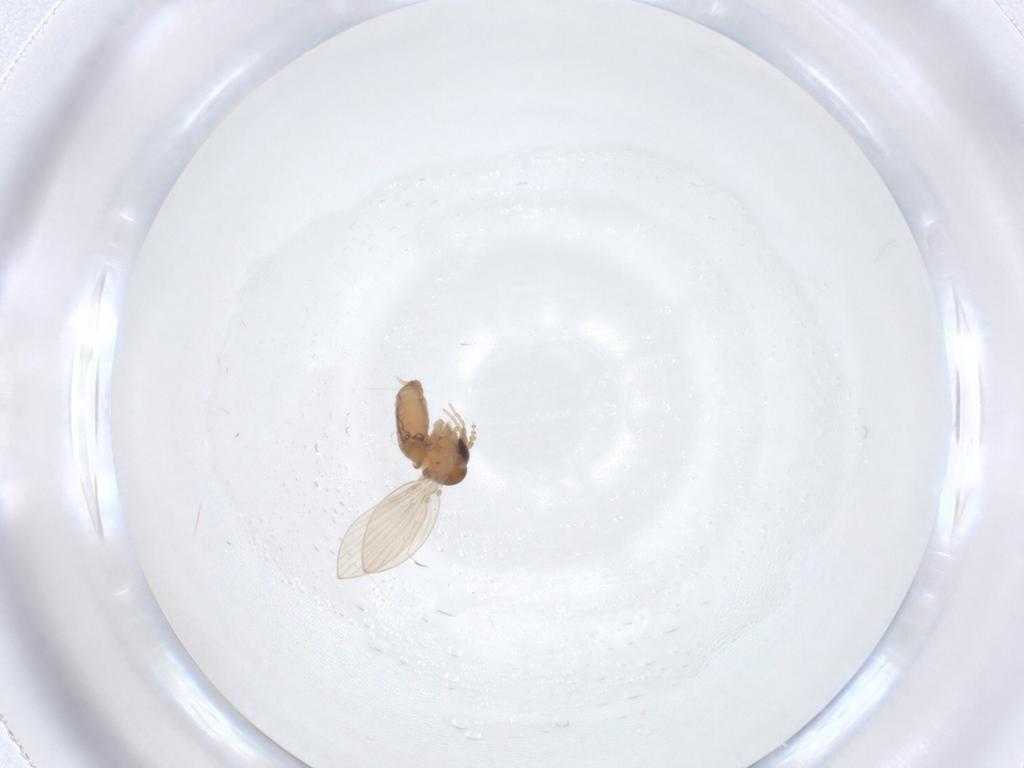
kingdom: Animalia
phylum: Arthropoda
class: Insecta
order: Diptera
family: Psychodidae
